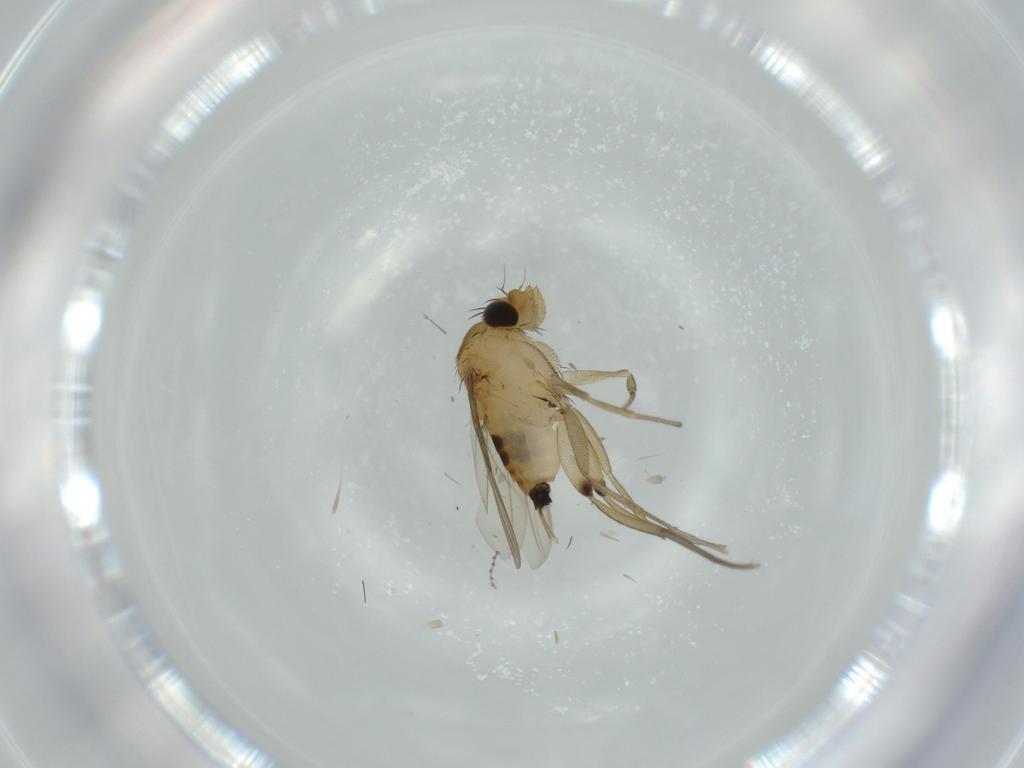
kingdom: Animalia
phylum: Arthropoda
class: Insecta
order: Diptera
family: Phoridae
